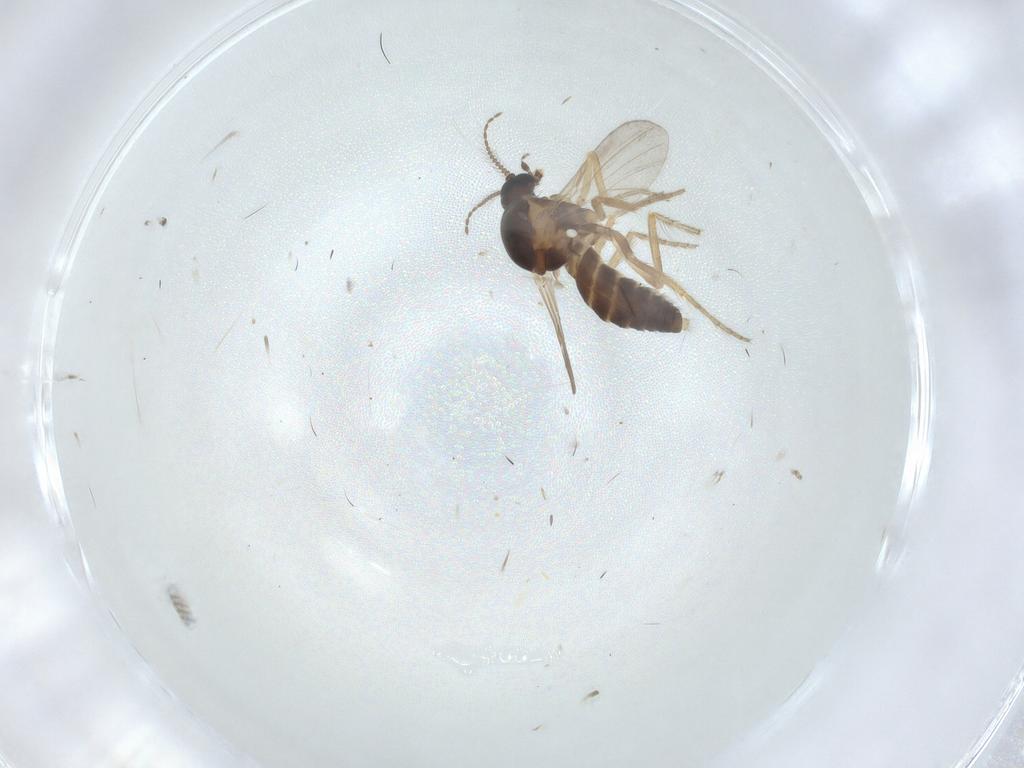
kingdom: Animalia
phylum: Arthropoda
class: Insecta
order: Diptera
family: Ceratopogonidae
